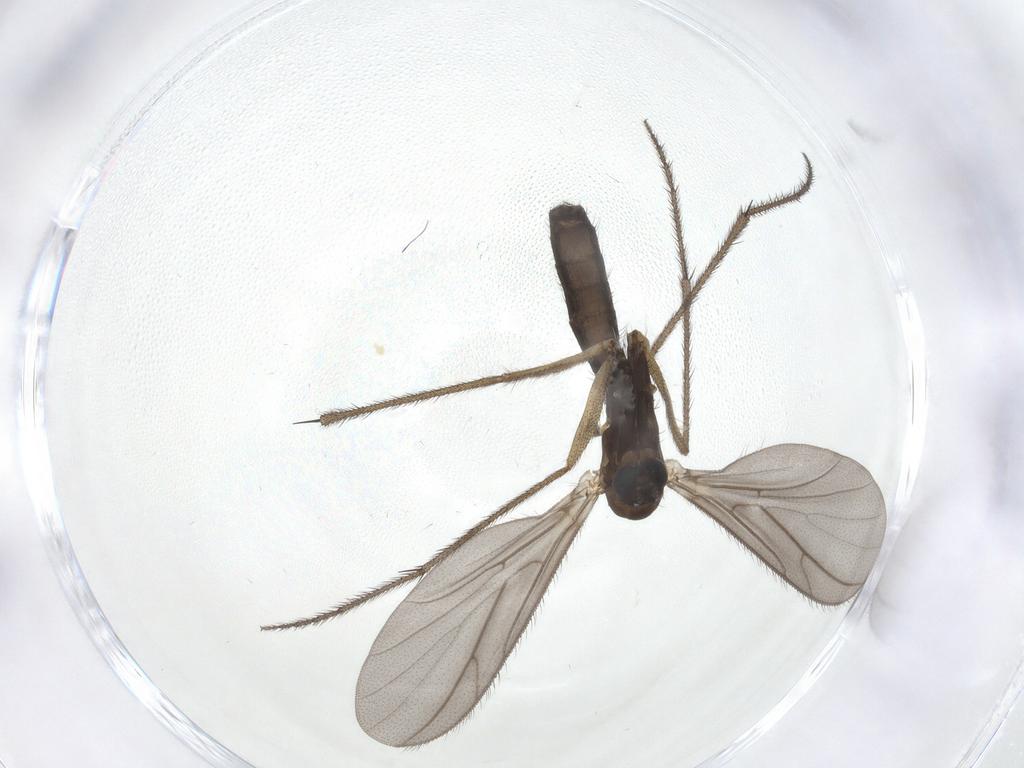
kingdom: Animalia
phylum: Arthropoda
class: Insecta
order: Diptera
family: Ditomyiidae
